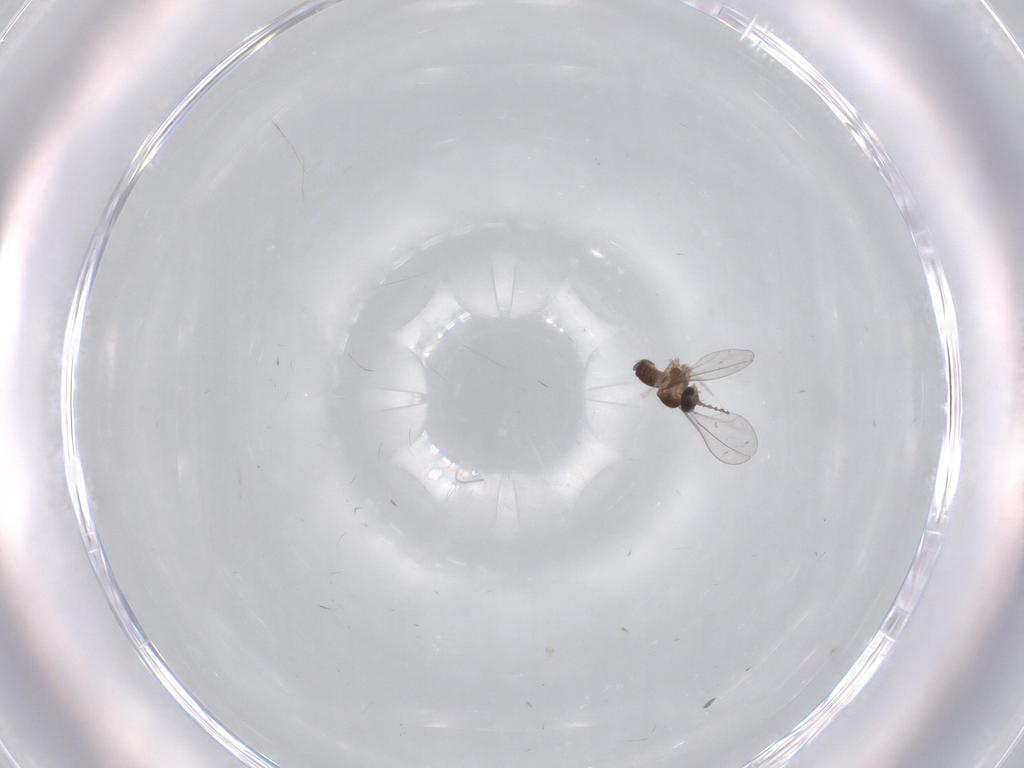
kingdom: Animalia
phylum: Arthropoda
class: Insecta
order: Diptera
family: Cecidomyiidae
